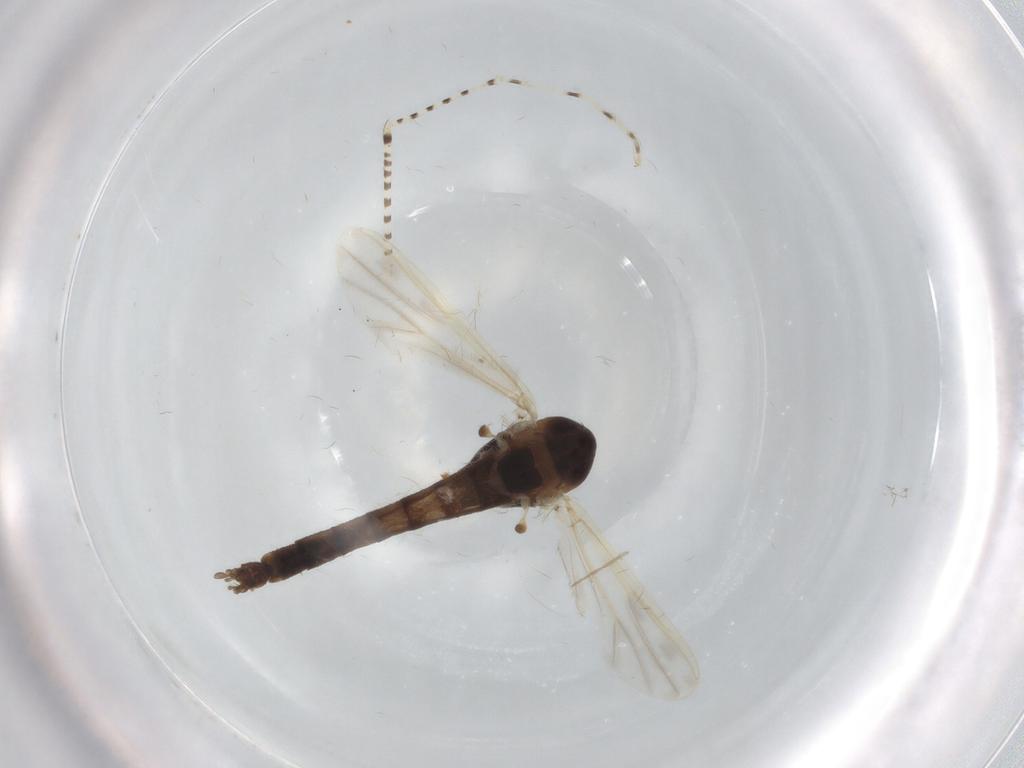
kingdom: Animalia
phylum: Arthropoda
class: Insecta
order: Diptera
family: Chironomidae
